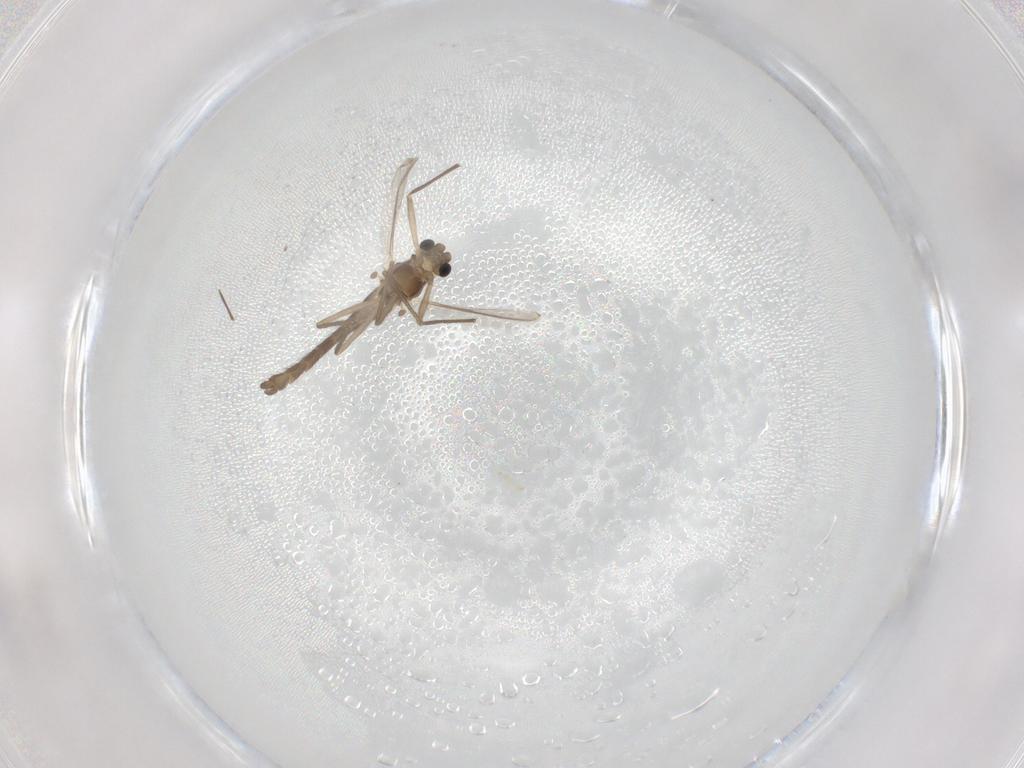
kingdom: Animalia
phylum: Arthropoda
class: Insecta
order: Diptera
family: Chironomidae
